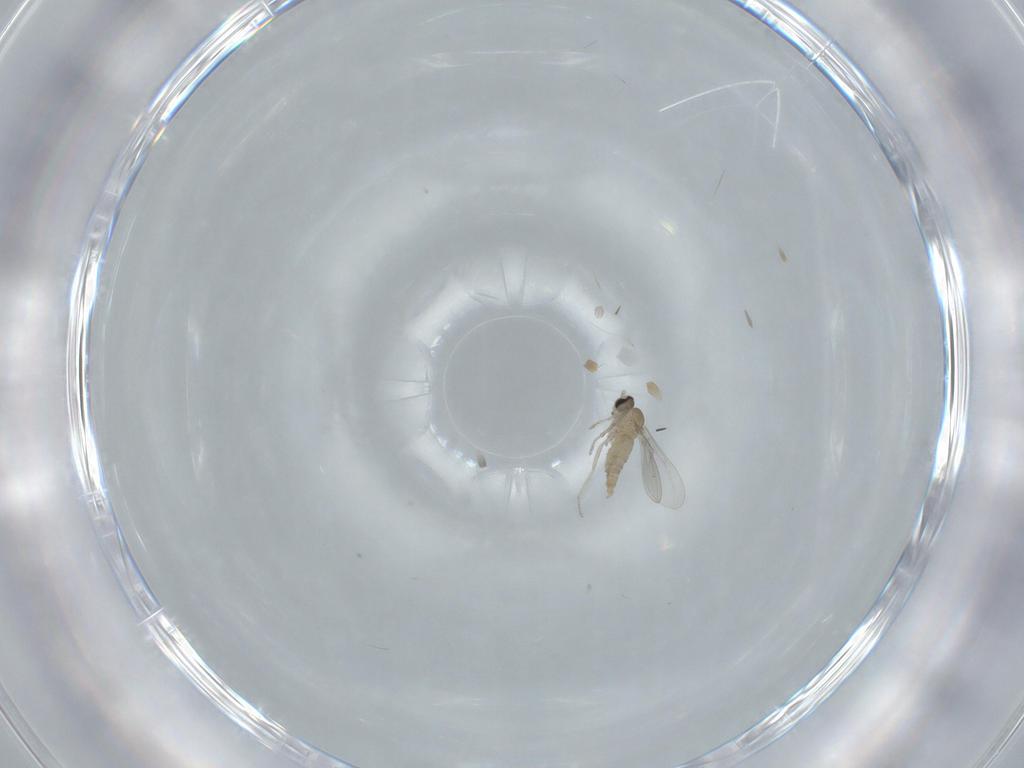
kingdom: Animalia
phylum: Arthropoda
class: Insecta
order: Diptera
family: Cecidomyiidae
